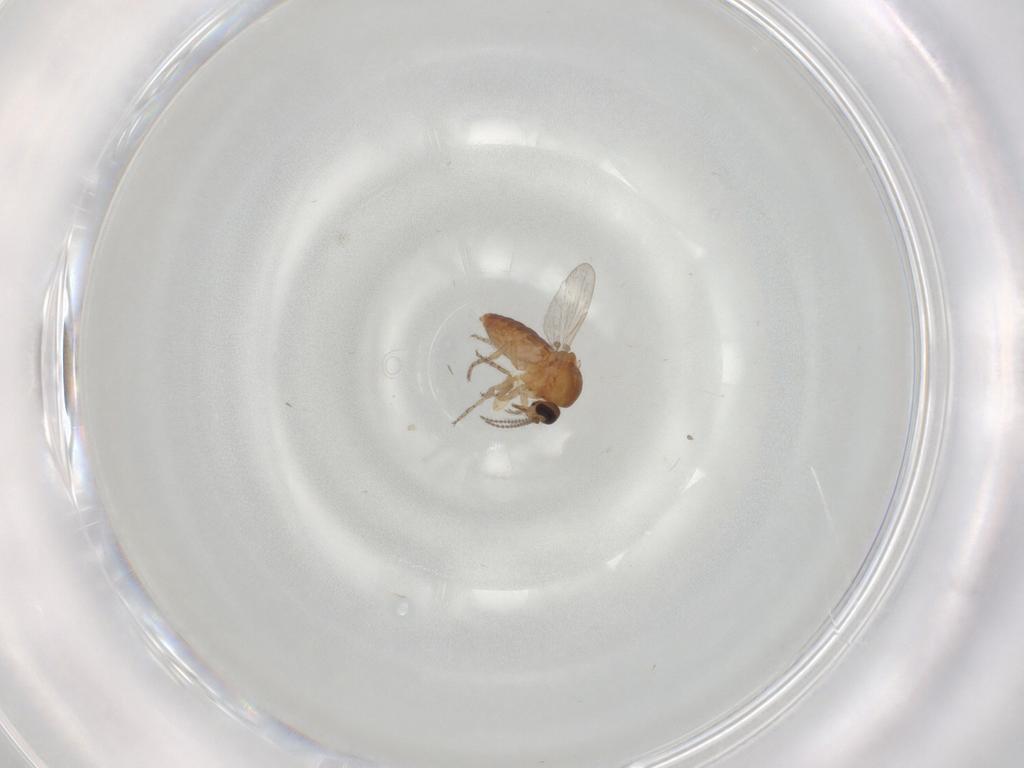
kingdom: Animalia
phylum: Arthropoda
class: Insecta
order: Diptera
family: Ceratopogonidae
